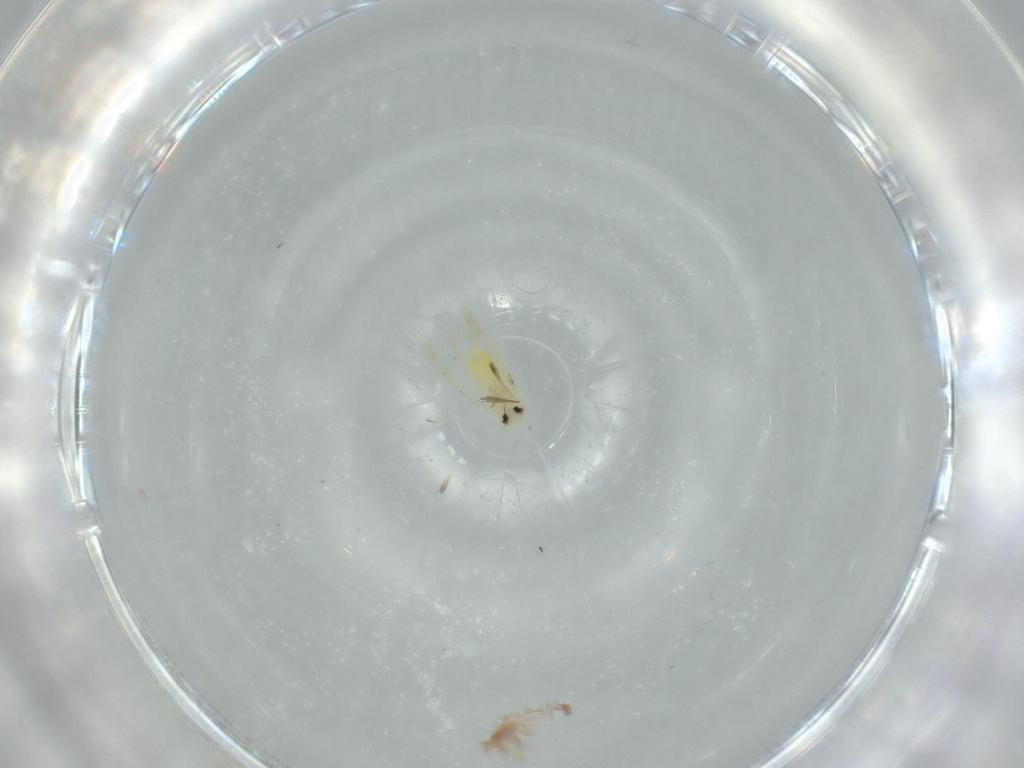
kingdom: Animalia
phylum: Arthropoda
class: Insecta
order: Hemiptera
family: Aleyrodidae
